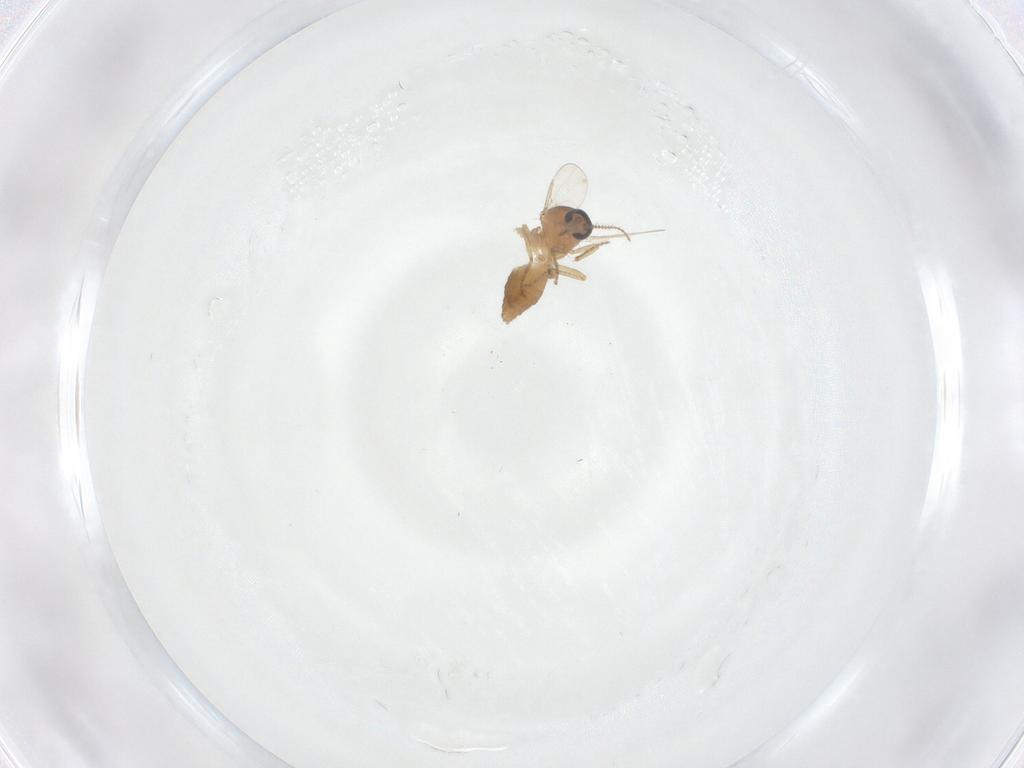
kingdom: Animalia
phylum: Arthropoda
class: Insecta
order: Diptera
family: Ceratopogonidae
